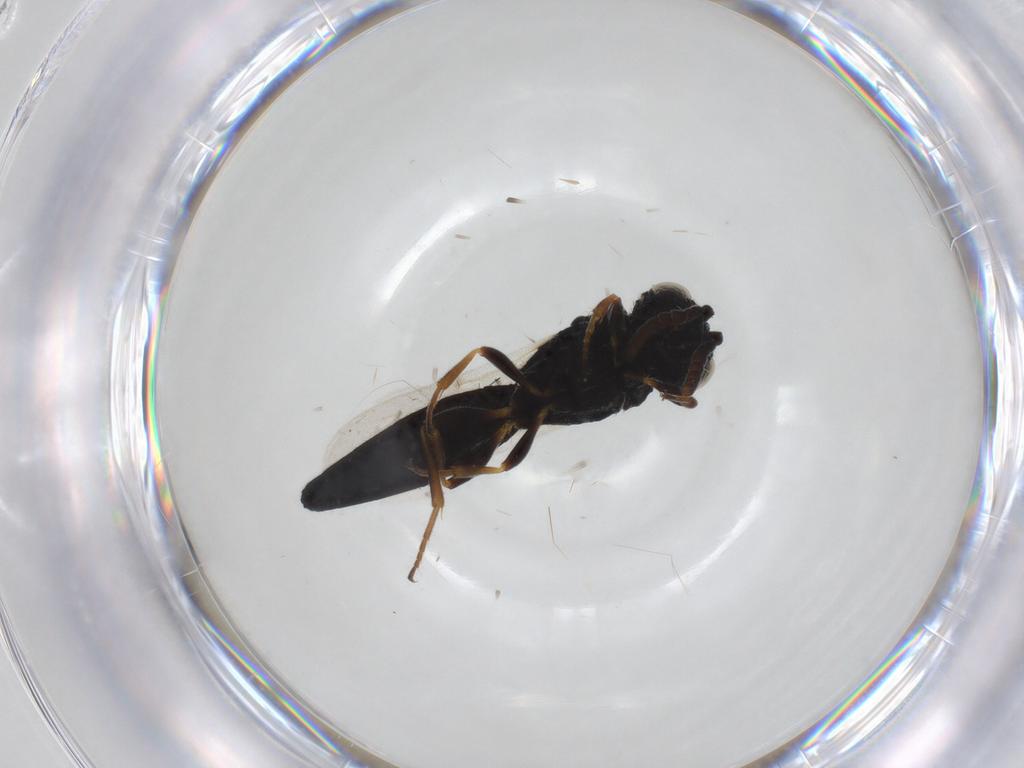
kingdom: Animalia
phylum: Arthropoda
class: Insecta
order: Hymenoptera
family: Scelionidae
